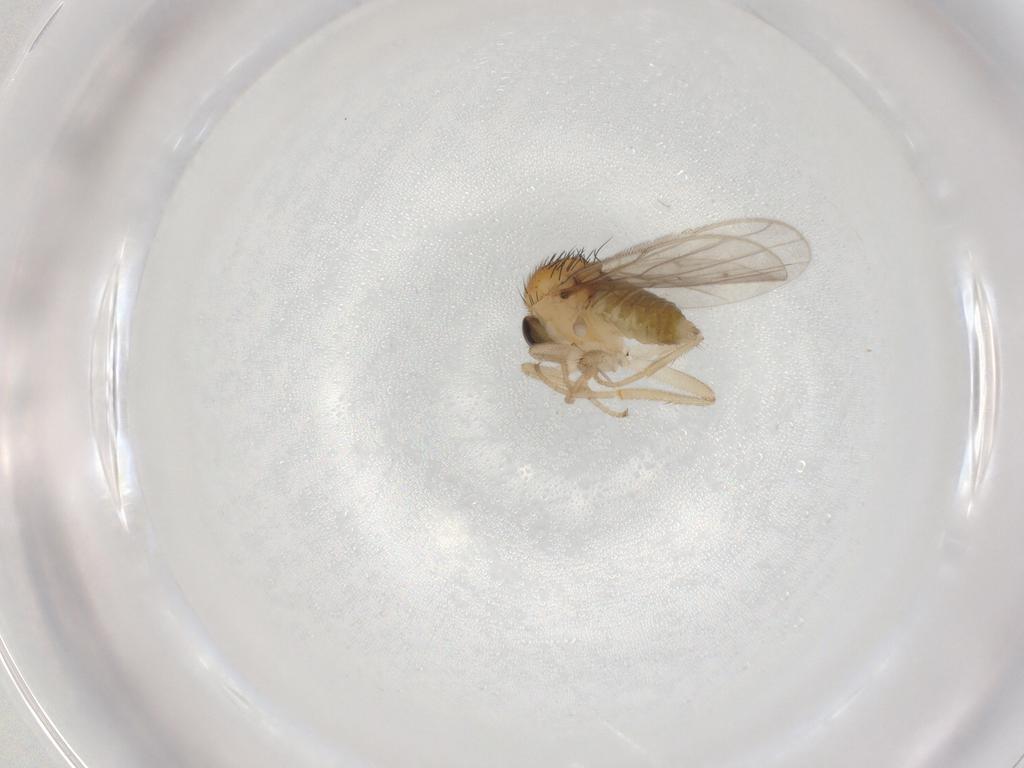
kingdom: Animalia
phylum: Arthropoda
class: Insecta
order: Diptera
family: Hybotidae
